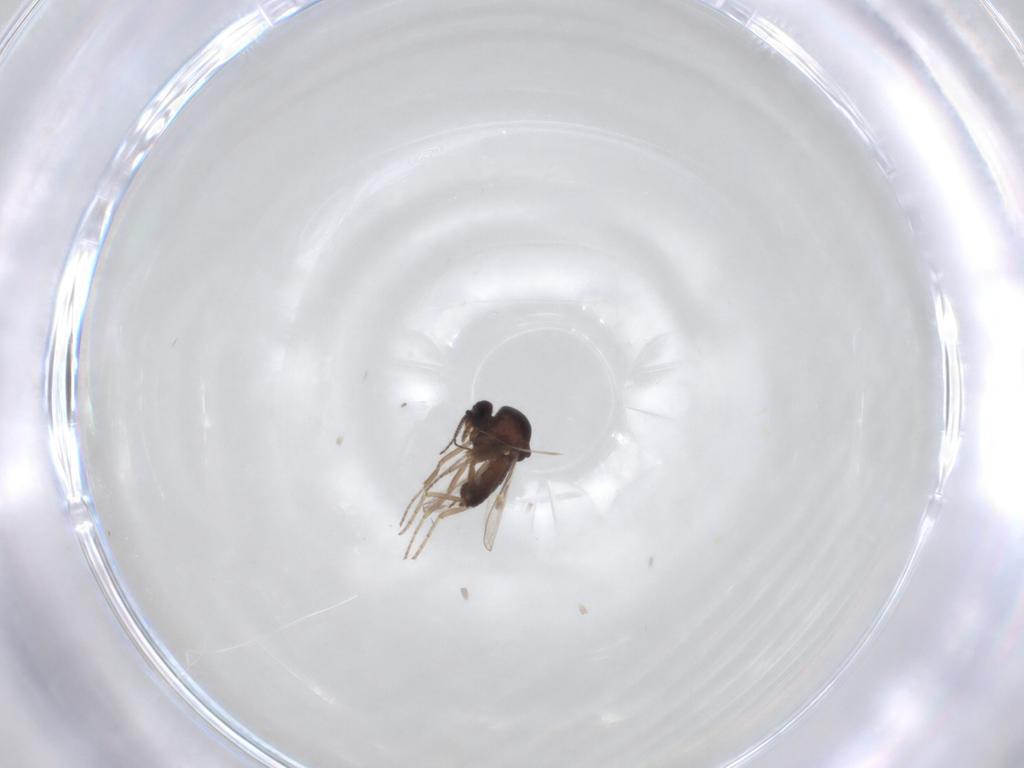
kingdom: Animalia
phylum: Arthropoda
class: Insecta
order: Diptera
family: Ceratopogonidae
